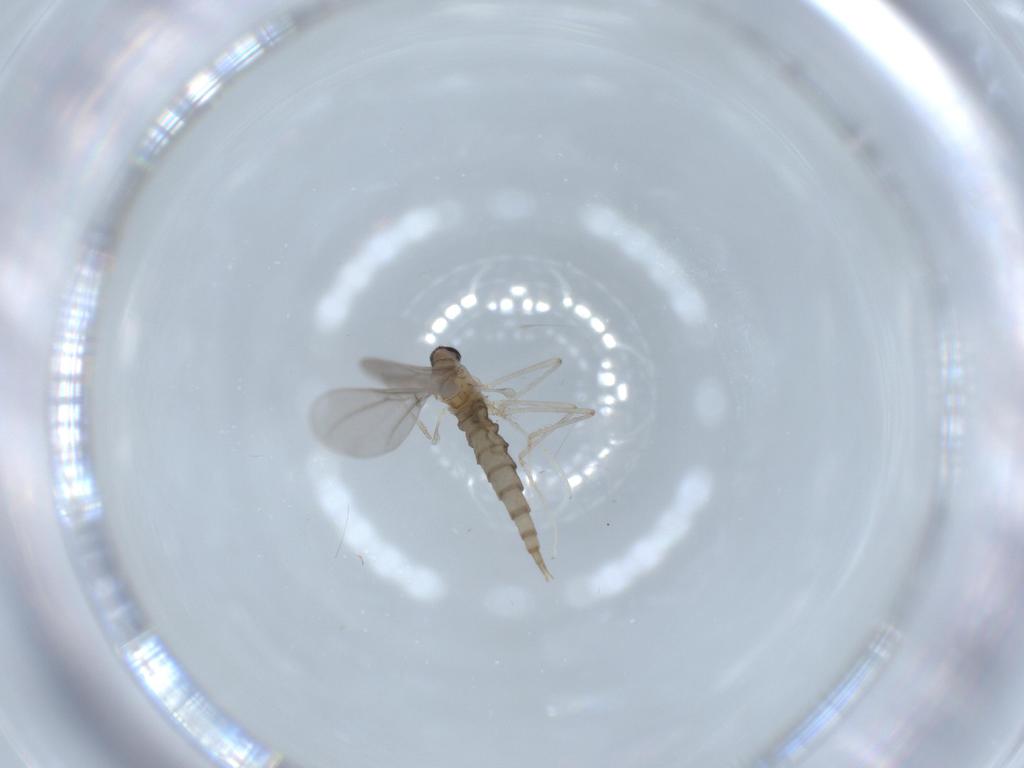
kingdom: Animalia
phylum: Arthropoda
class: Insecta
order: Diptera
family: Cecidomyiidae
